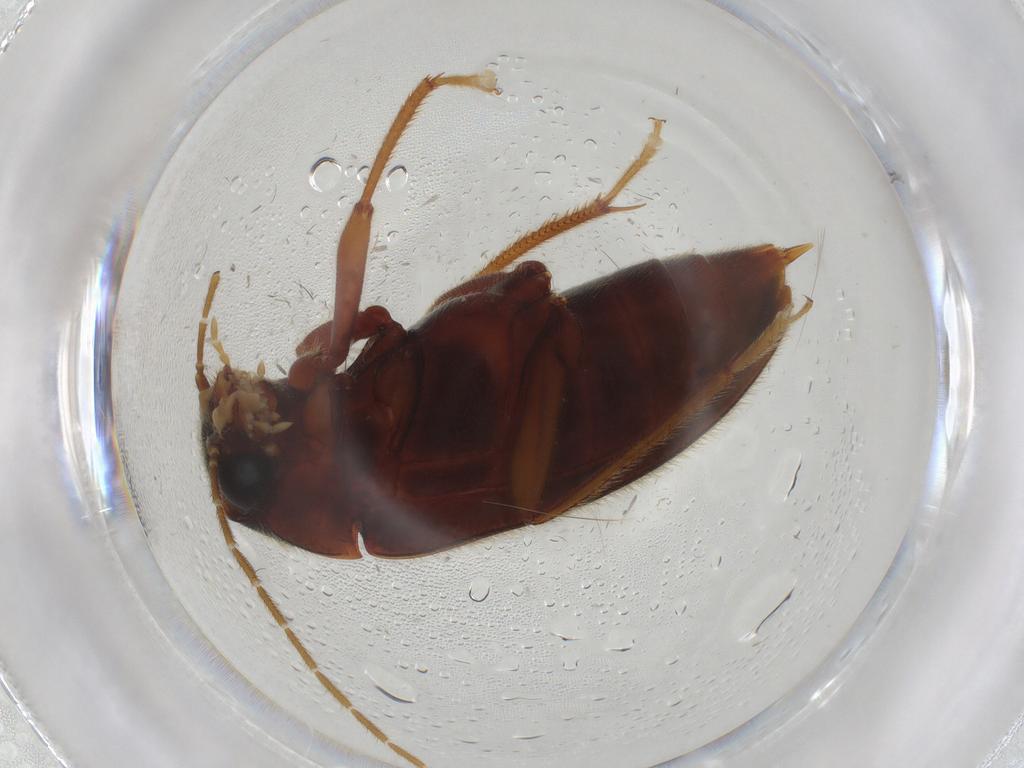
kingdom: Animalia
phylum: Arthropoda
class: Insecta
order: Coleoptera
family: Ptilodactylidae
